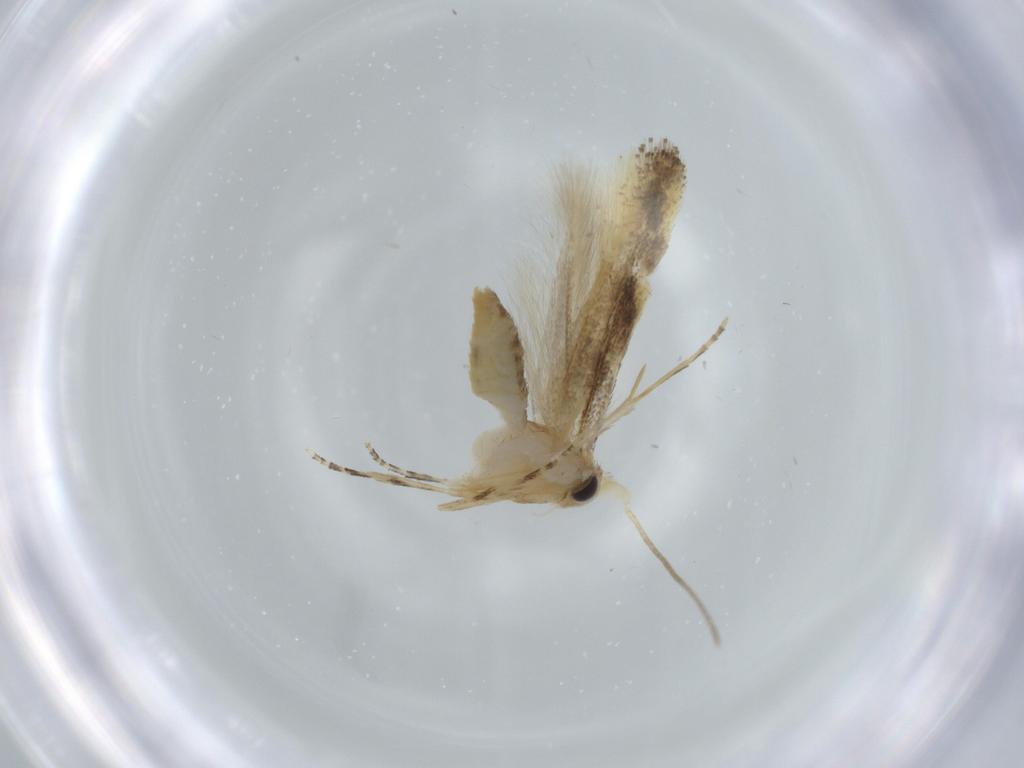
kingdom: Animalia
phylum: Arthropoda
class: Insecta
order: Lepidoptera
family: Bucculatricidae
